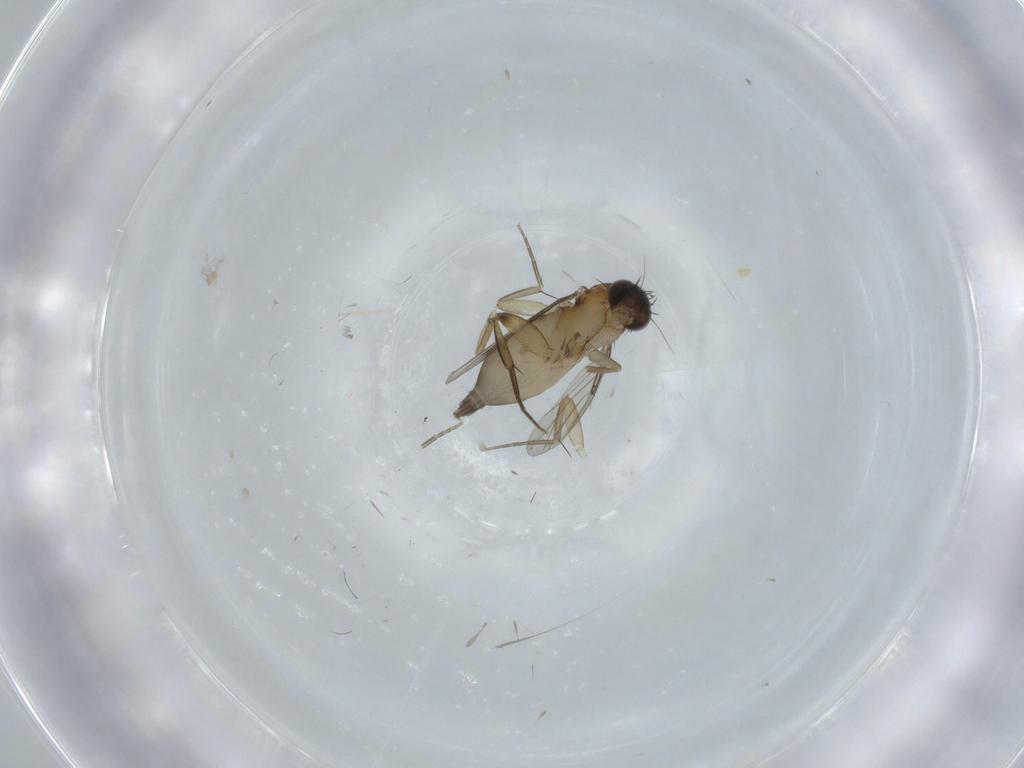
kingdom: Animalia
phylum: Arthropoda
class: Insecta
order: Diptera
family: Phoridae
